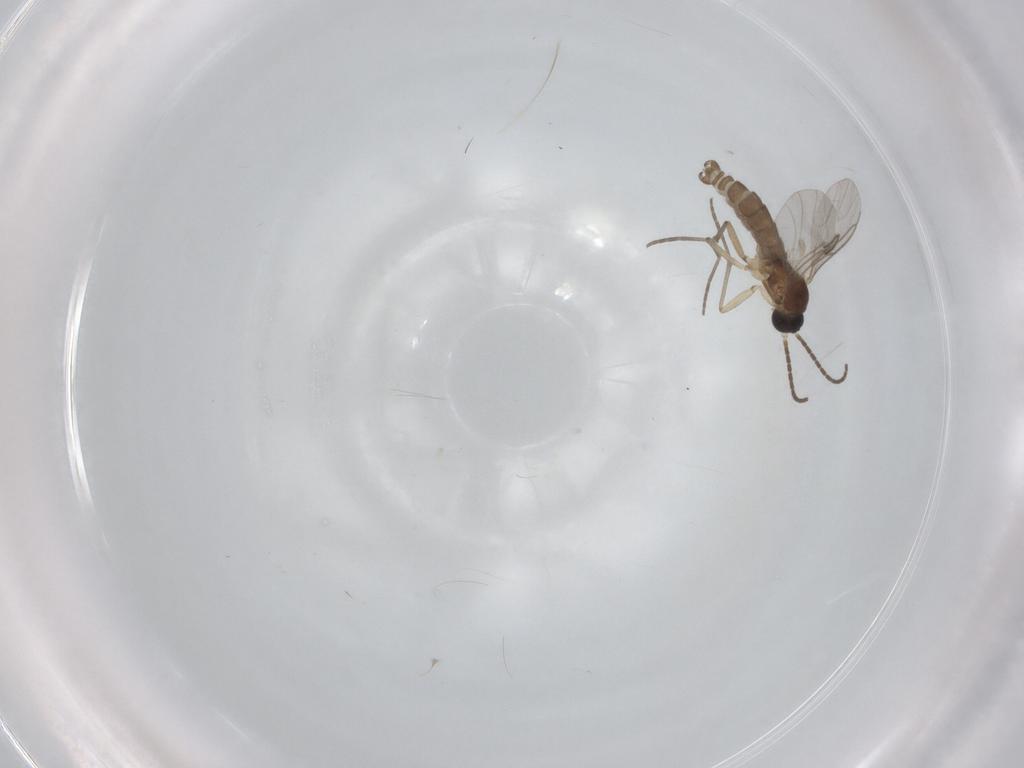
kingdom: Animalia
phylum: Arthropoda
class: Insecta
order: Diptera
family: Sciaridae
